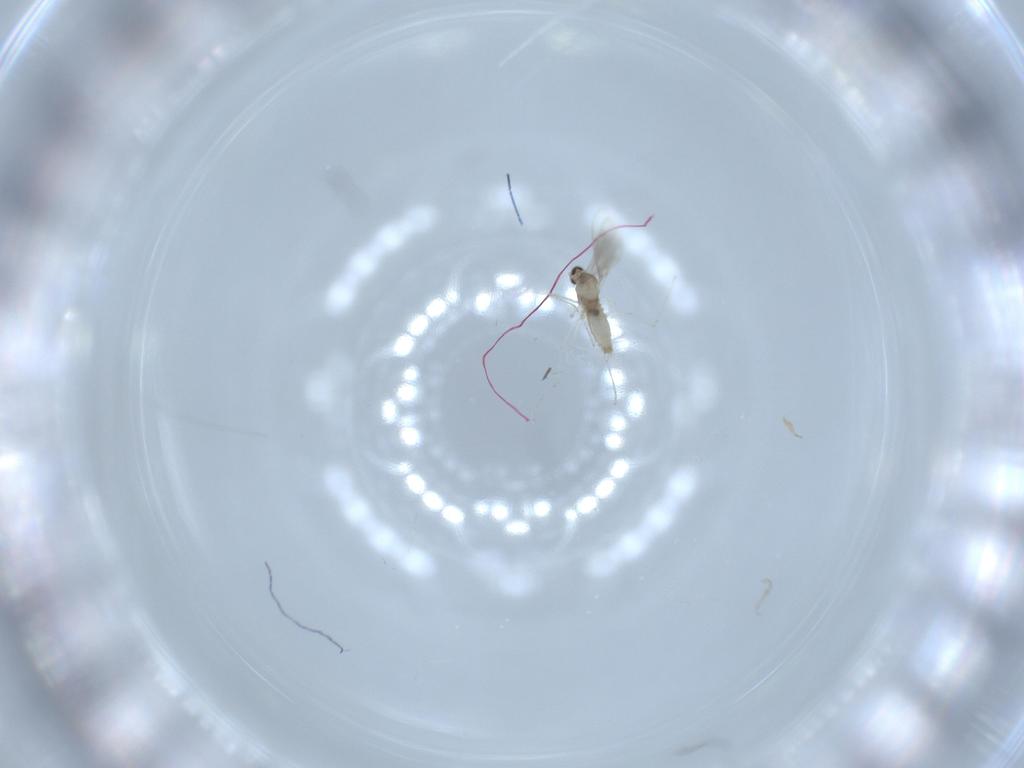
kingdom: Animalia
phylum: Arthropoda
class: Insecta
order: Diptera
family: Cecidomyiidae
